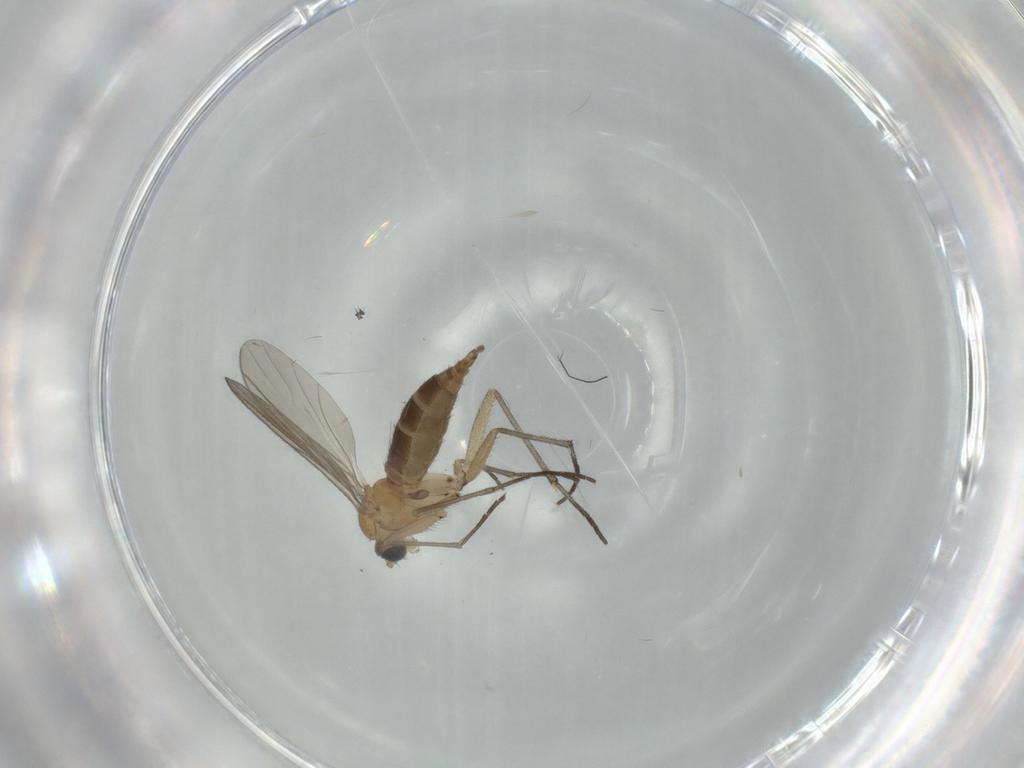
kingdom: Animalia
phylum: Arthropoda
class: Insecta
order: Diptera
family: Sciaridae
